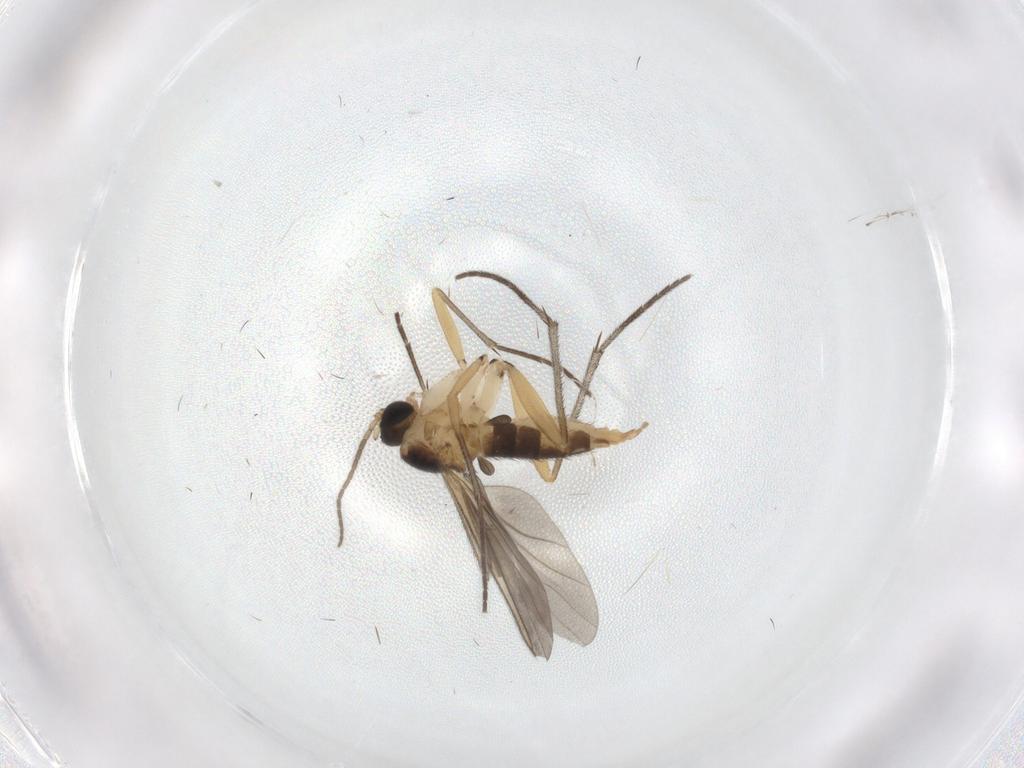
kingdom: Animalia
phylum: Arthropoda
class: Insecta
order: Diptera
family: Sciaridae
